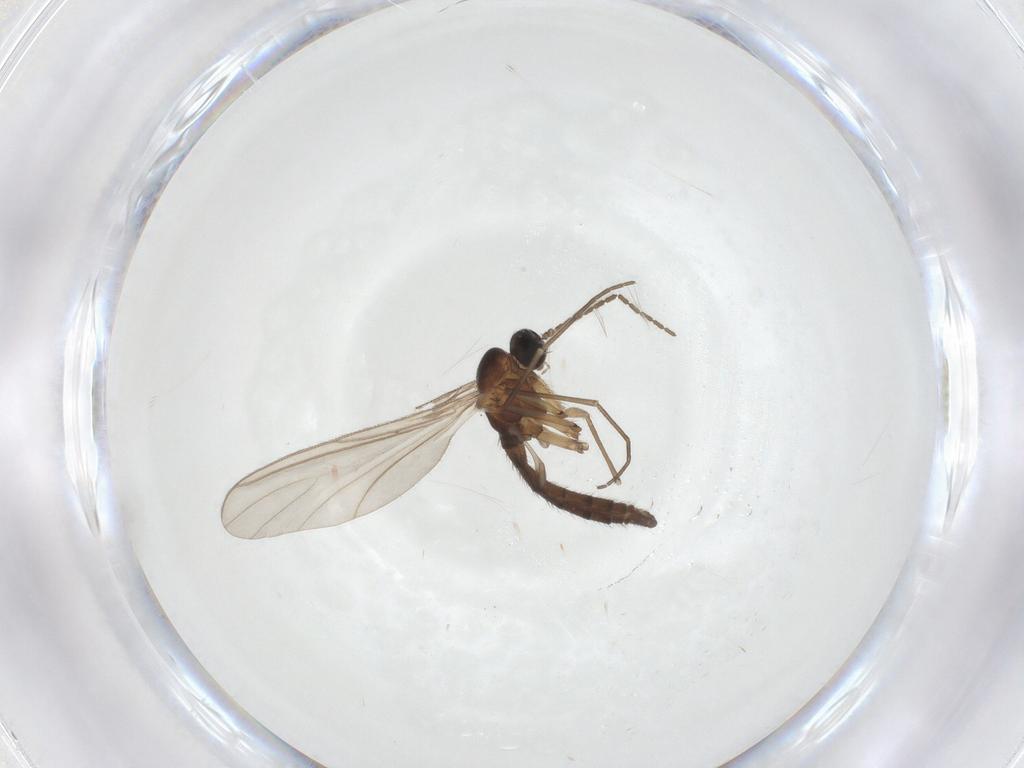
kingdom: Animalia
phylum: Arthropoda
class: Insecta
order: Diptera
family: Sciaridae
